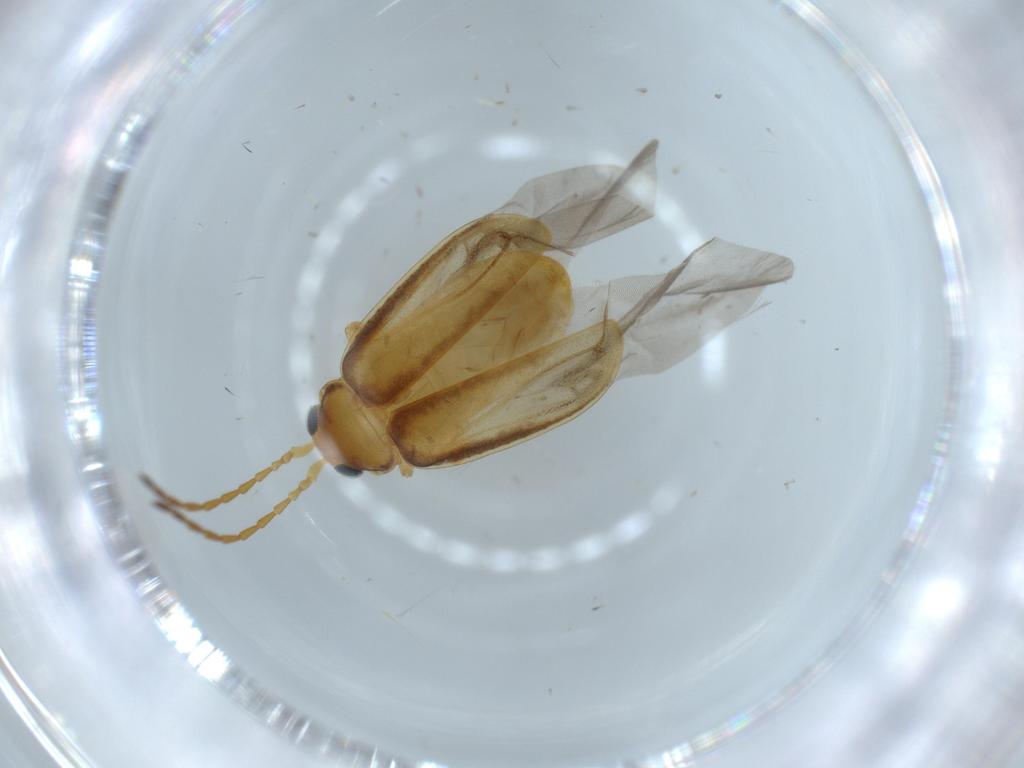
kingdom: Animalia
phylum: Arthropoda
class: Insecta
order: Coleoptera
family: Chrysomelidae
